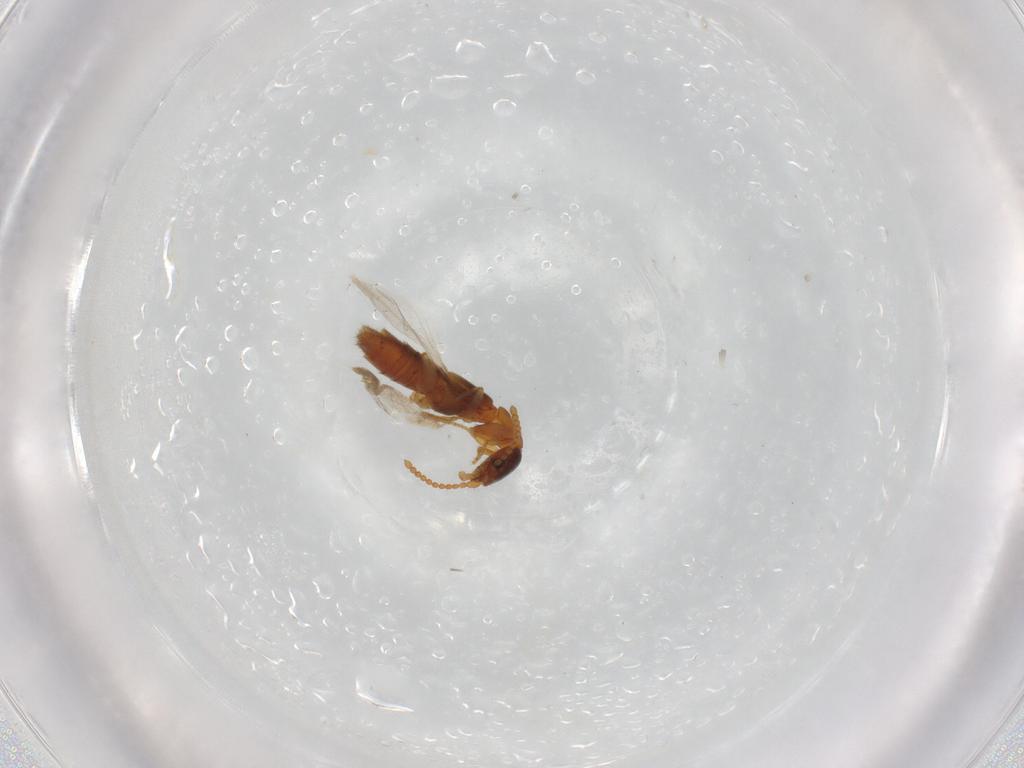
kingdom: Animalia
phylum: Arthropoda
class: Insecta
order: Coleoptera
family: Staphylinidae
